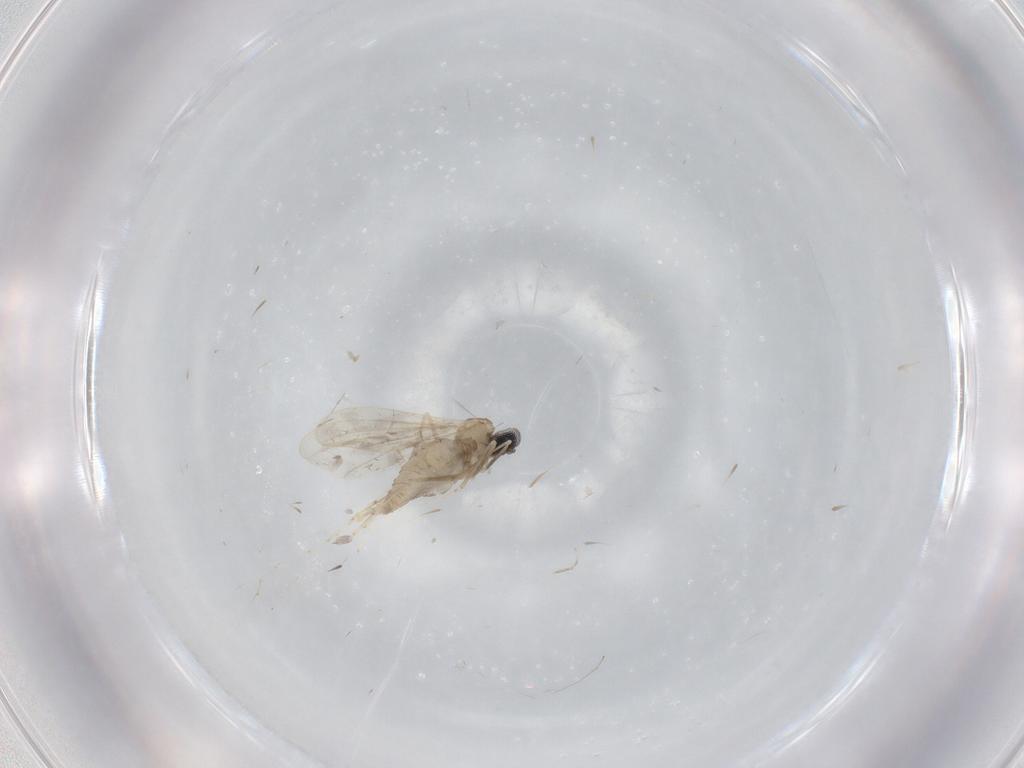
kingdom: Animalia
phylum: Arthropoda
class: Insecta
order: Diptera
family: Cecidomyiidae
